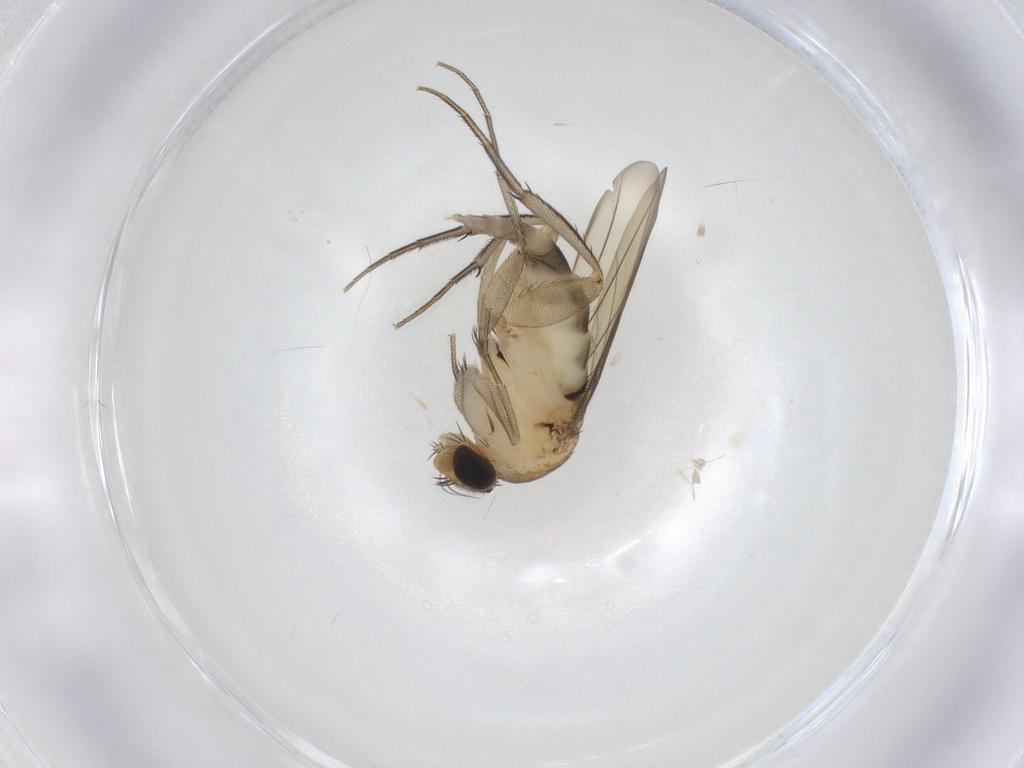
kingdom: Animalia
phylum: Arthropoda
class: Insecta
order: Diptera
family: Phoridae
